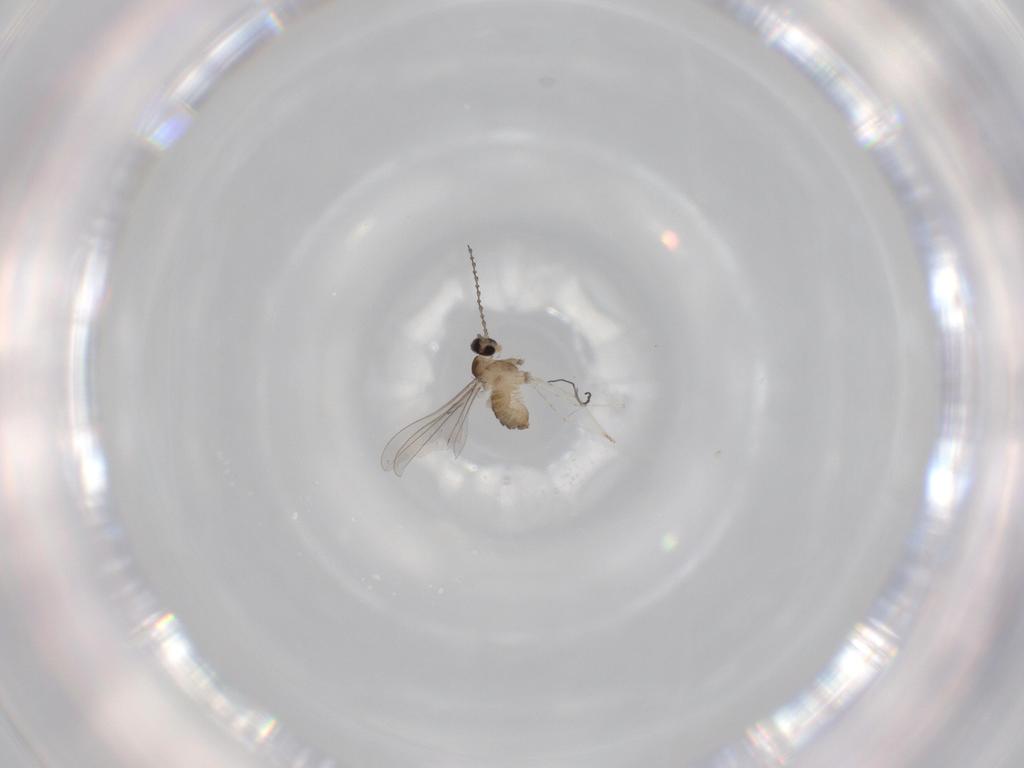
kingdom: Animalia
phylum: Arthropoda
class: Insecta
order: Diptera
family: Cecidomyiidae
